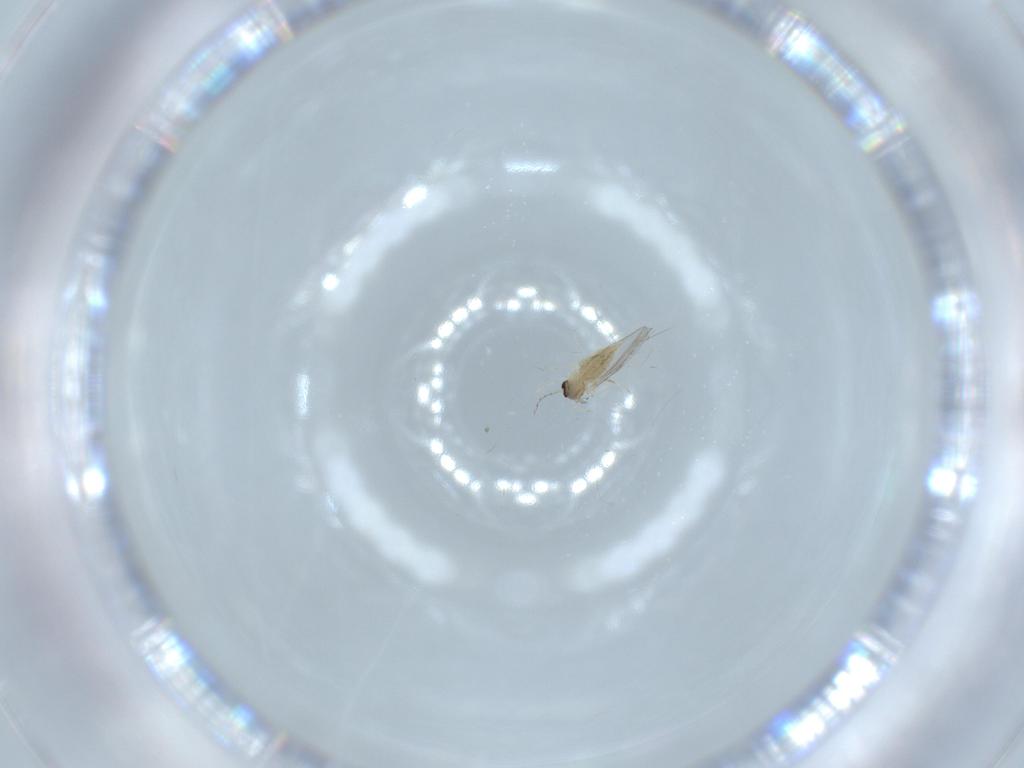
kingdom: Animalia
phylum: Arthropoda
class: Insecta
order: Diptera
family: Cecidomyiidae
